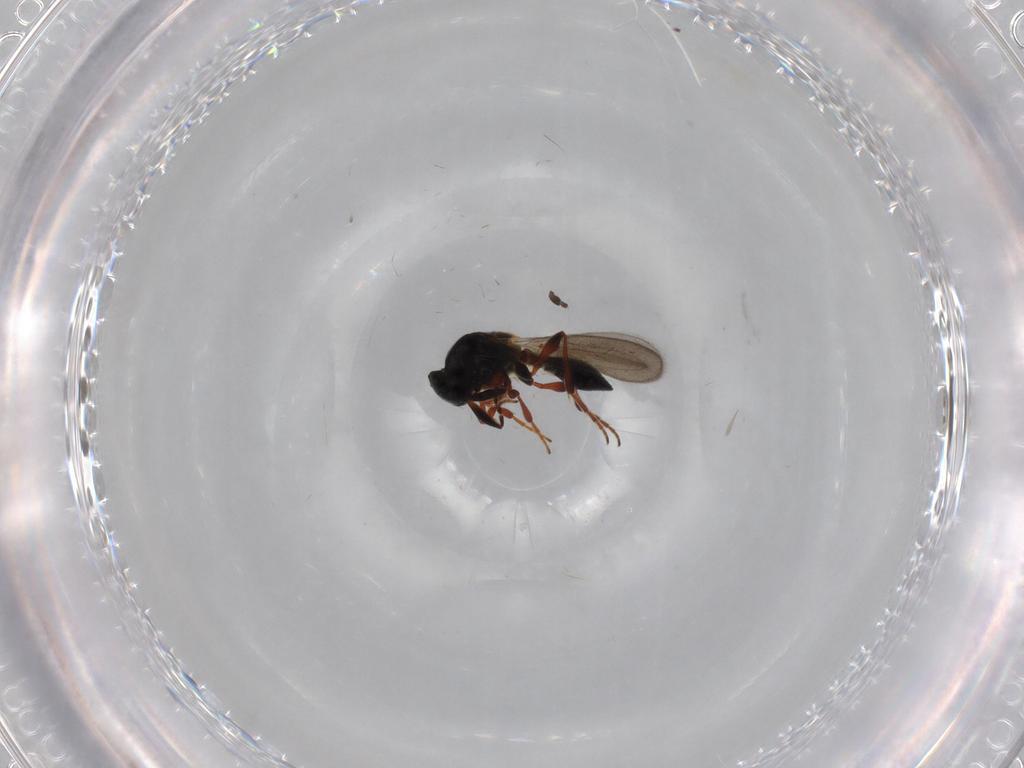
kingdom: Animalia
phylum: Arthropoda
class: Insecta
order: Hymenoptera
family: Formicidae
